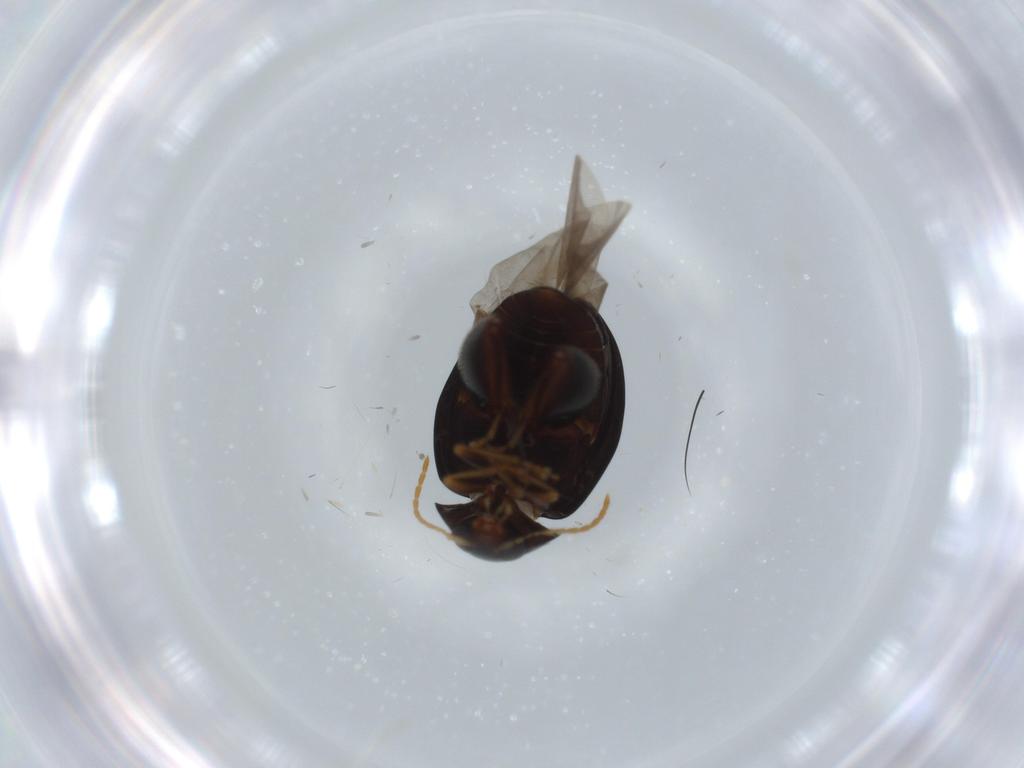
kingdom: Animalia
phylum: Arthropoda
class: Insecta
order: Coleoptera
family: Chrysomelidae
